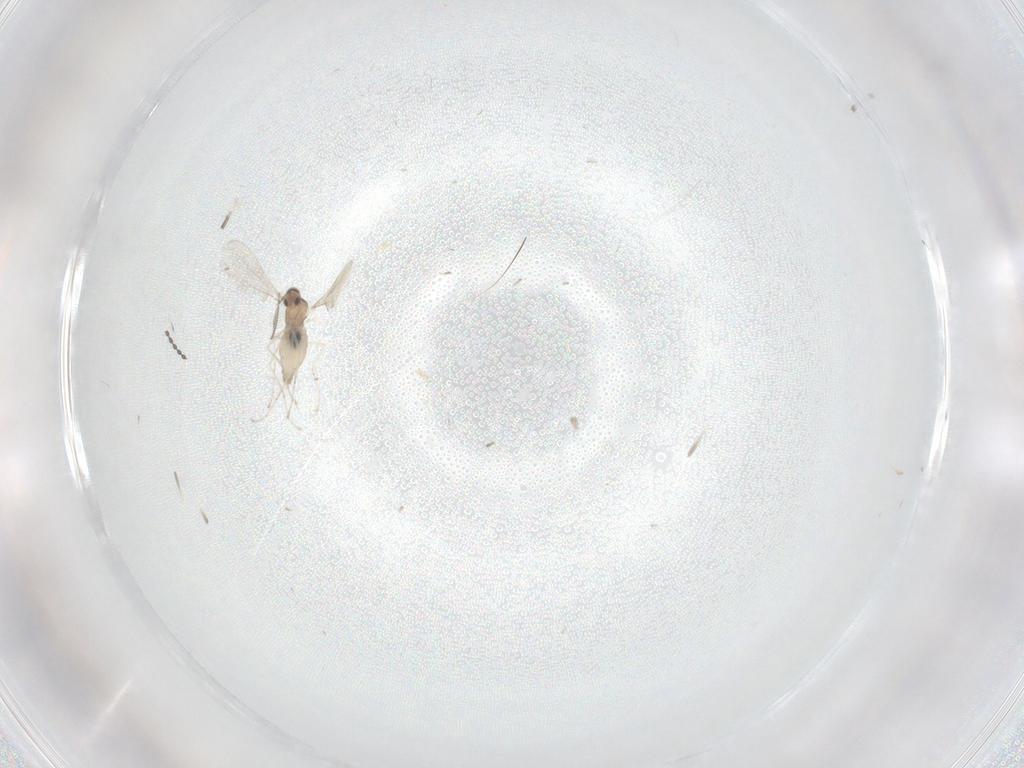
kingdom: Animalia
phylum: Arthropoda
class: Insecta
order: Diptera
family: Cecidomyiidae
